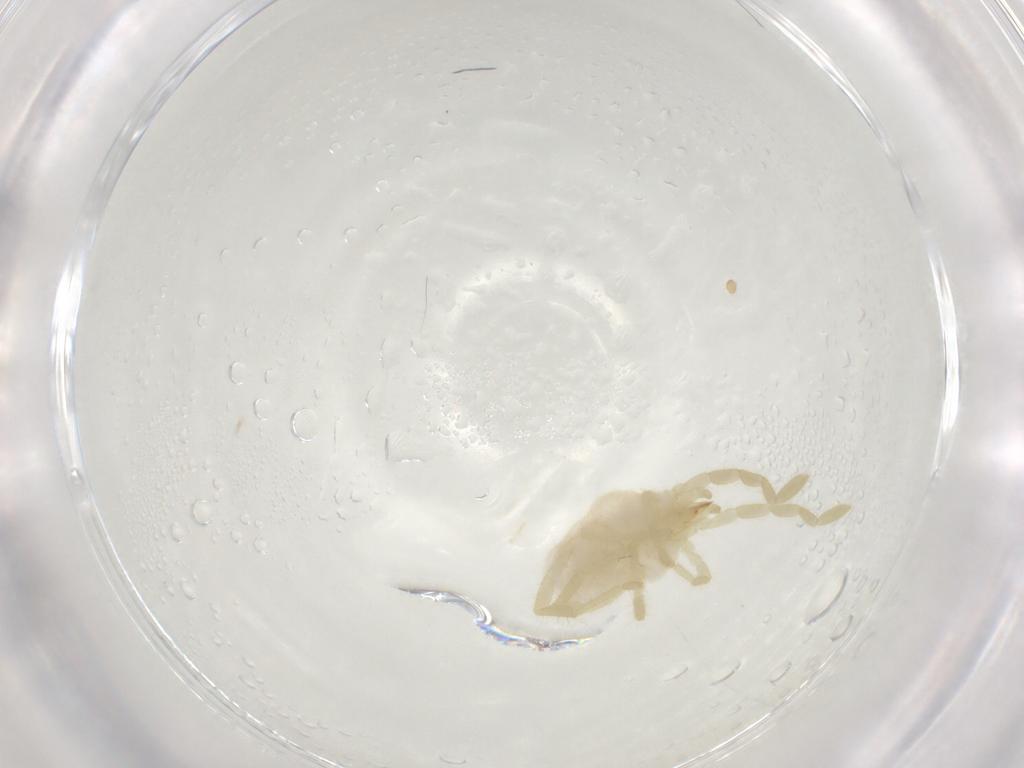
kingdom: Animalia
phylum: Arthropoda
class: Arachnida
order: Trombidiformes
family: Erythraeidae
